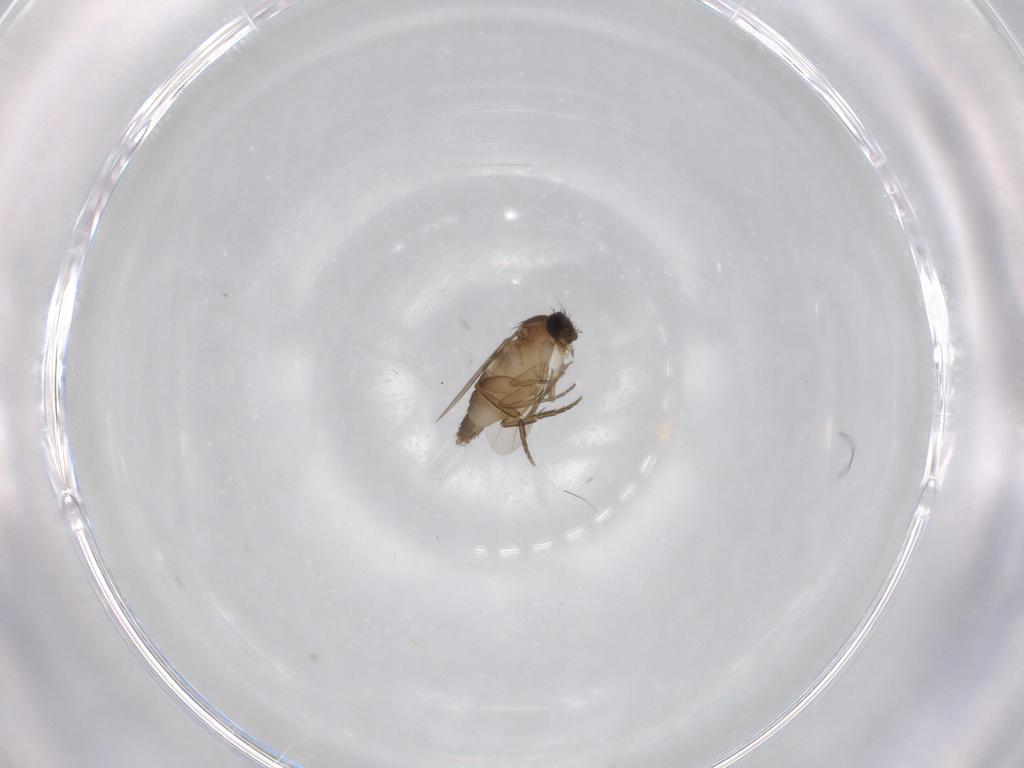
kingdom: Animalia
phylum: Arthropoda
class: Insecta
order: Diptera
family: Phoridae
